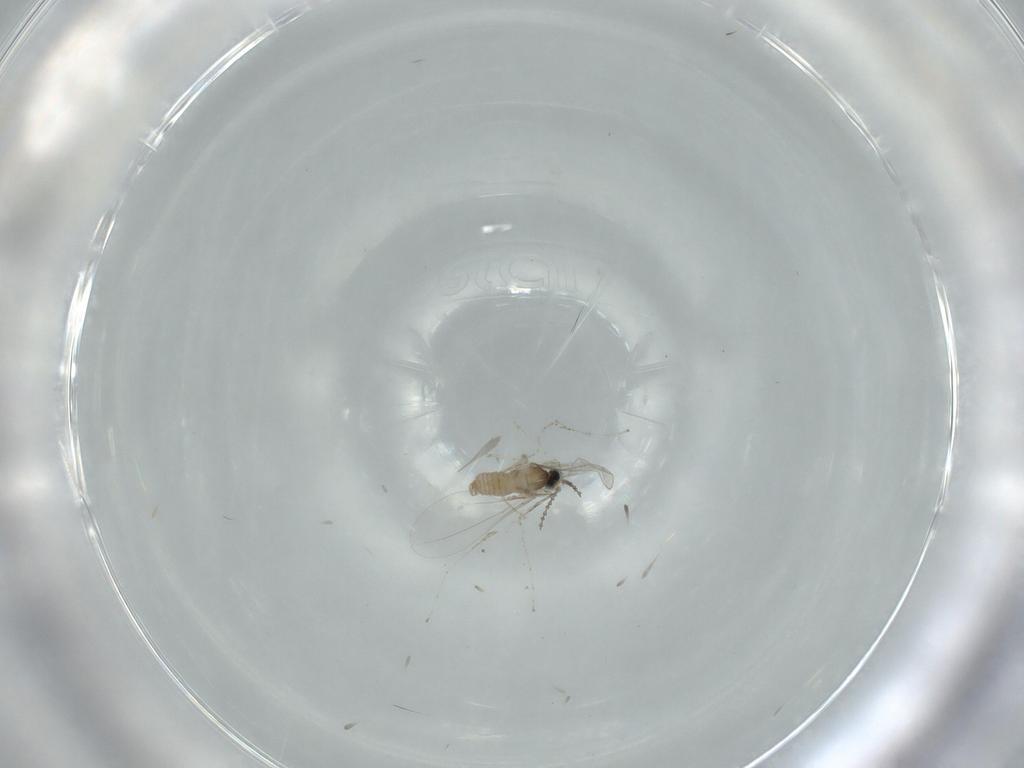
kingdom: Animalia
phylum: Arthropoda
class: Insecta
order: Diptera
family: Cecidomyiidae
